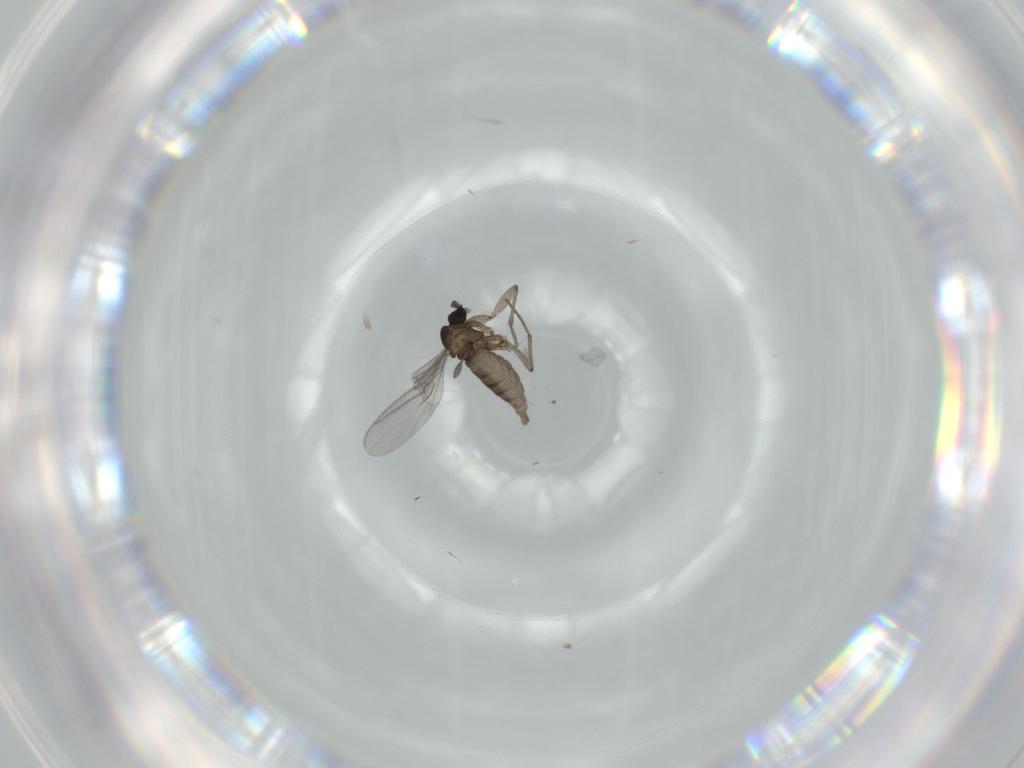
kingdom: Animalia
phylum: Arthropoda
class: Insecta
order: Diptera
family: Sciaridae
